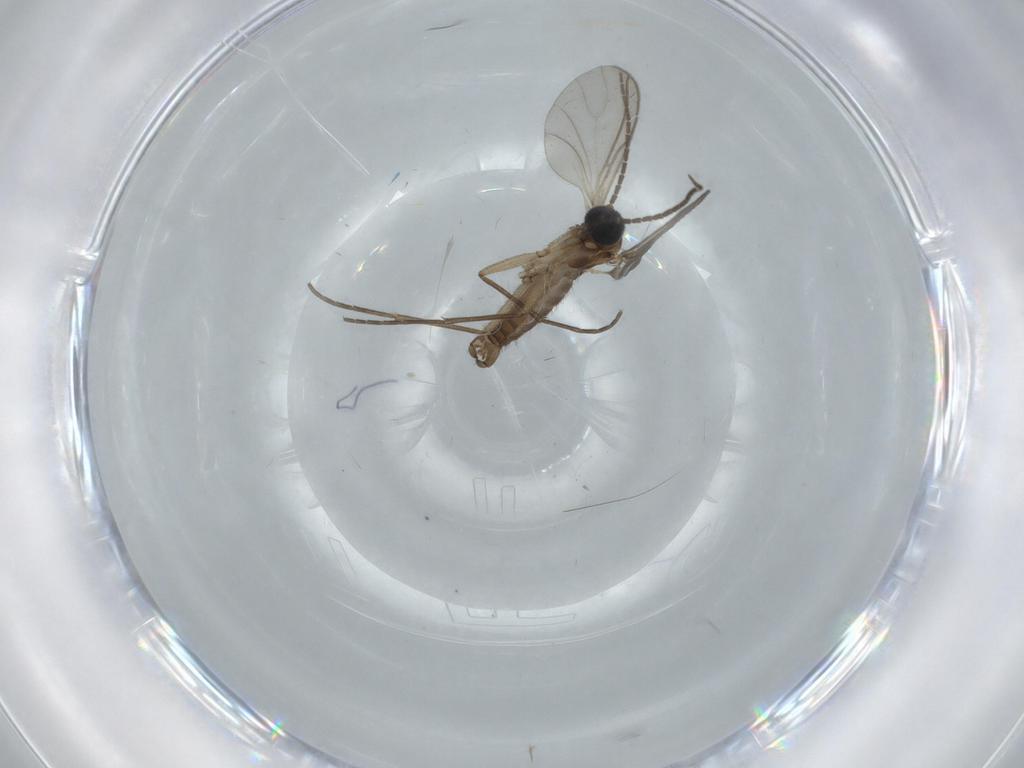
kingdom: Animalia
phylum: Arthropoda
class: Insecta
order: Diptera
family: Sciaridae
